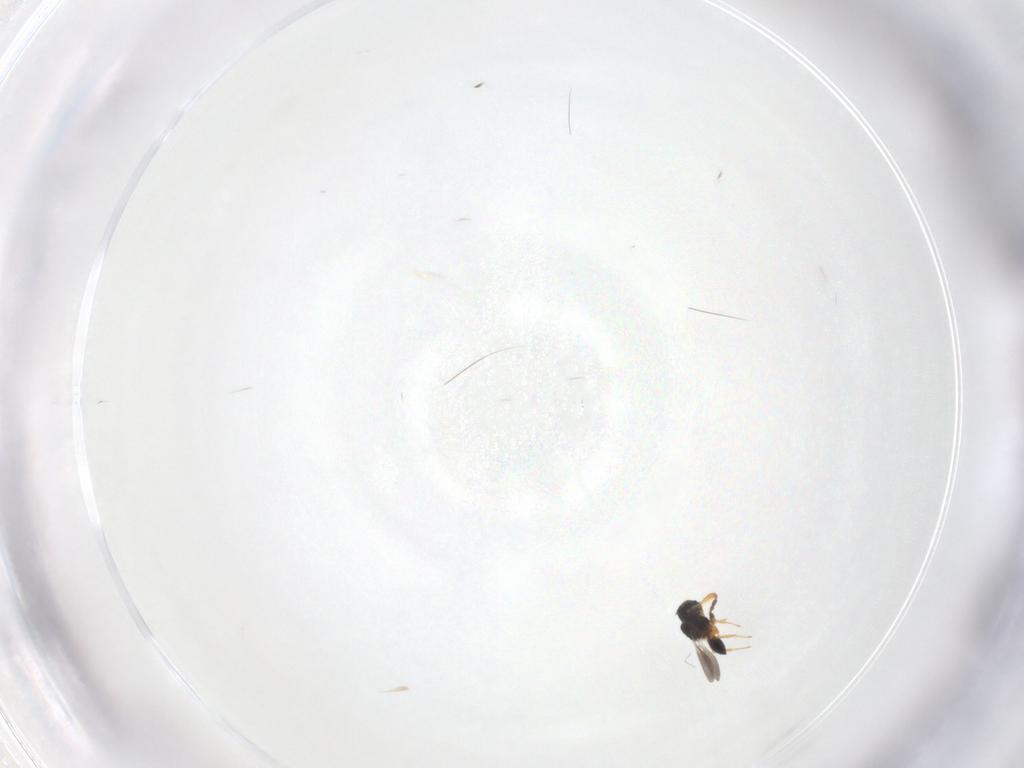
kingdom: Animalia
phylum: Arthropoda
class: Insecta
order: Hymenoptera
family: Platygastridae
